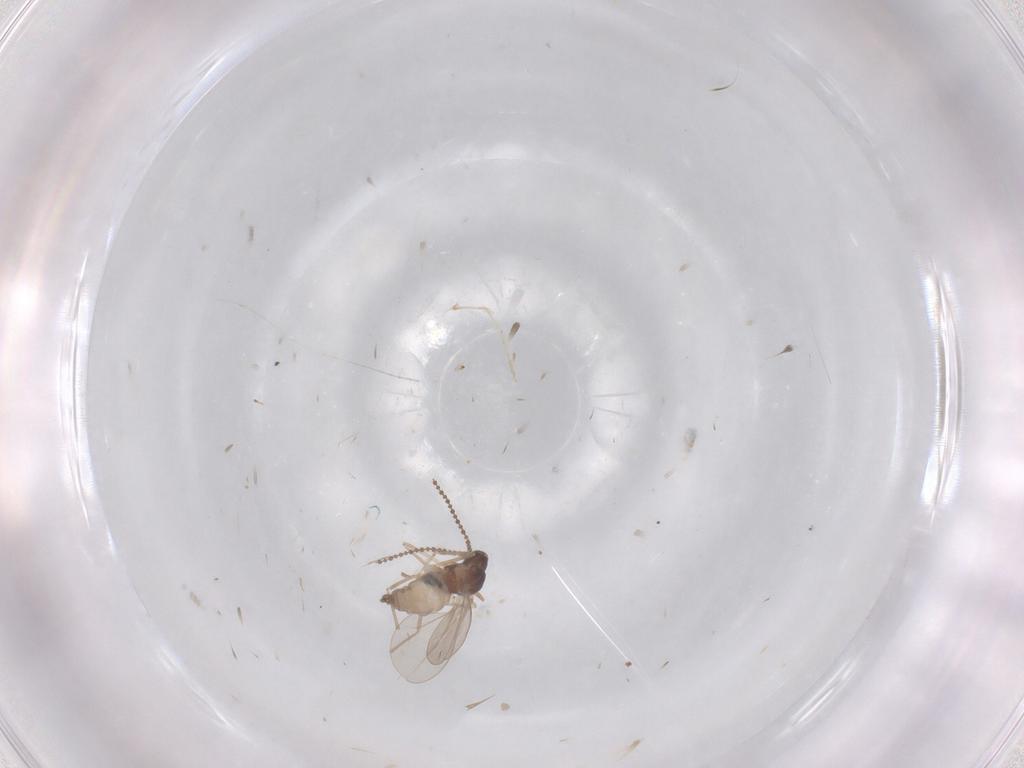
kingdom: Animalia
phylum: Arthropoda
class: Insecta
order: Diptera
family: Cecidomyiidae
